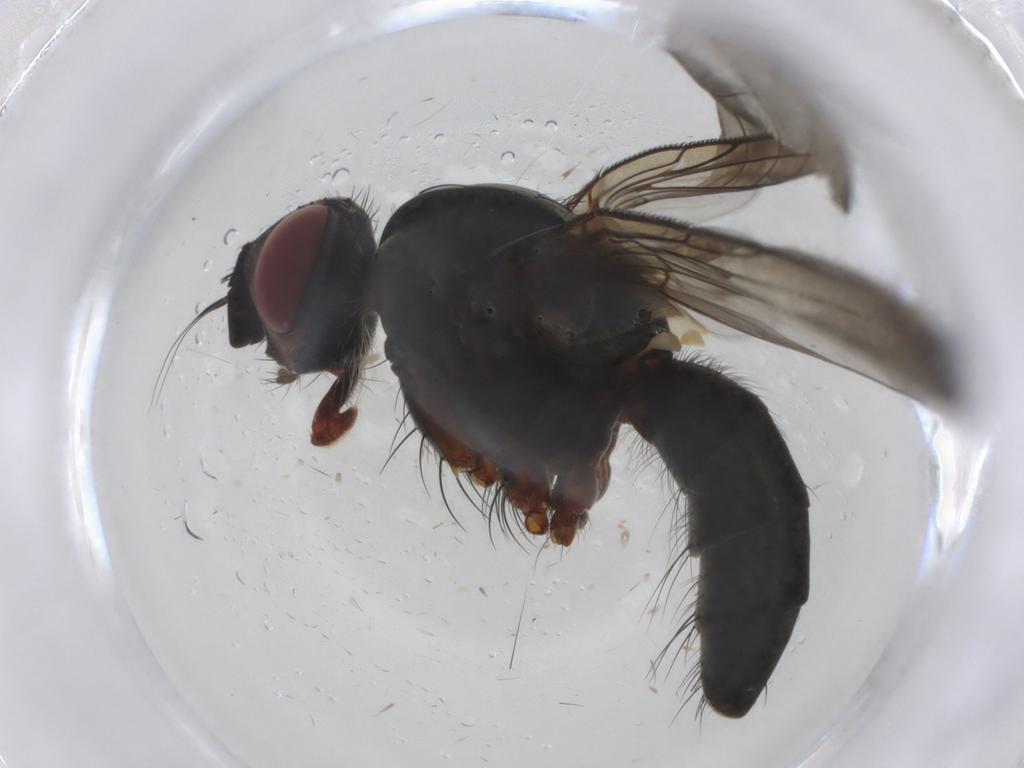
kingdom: Animalia
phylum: Arthropoda
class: Insecta
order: Diptera
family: Tachinidae
